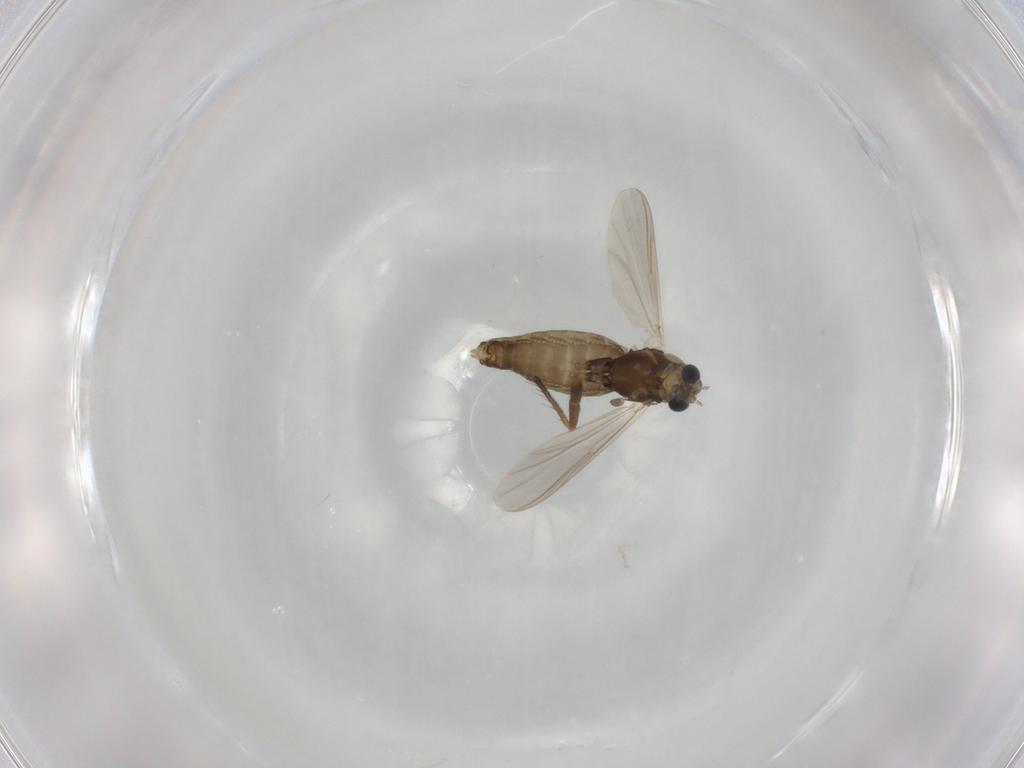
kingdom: Animalia
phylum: Arthropoda
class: Insecta
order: Diptera
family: Chironomidae
